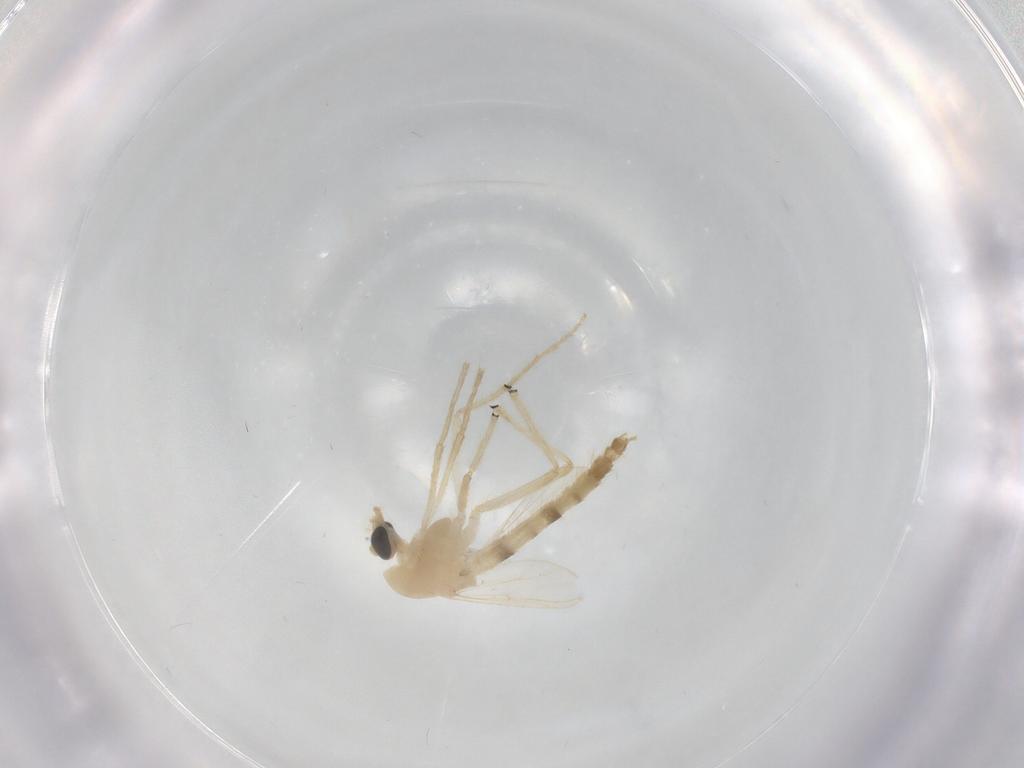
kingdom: Animalia
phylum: Arthropoda
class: Insecta
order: Diptera
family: Chironomidae
